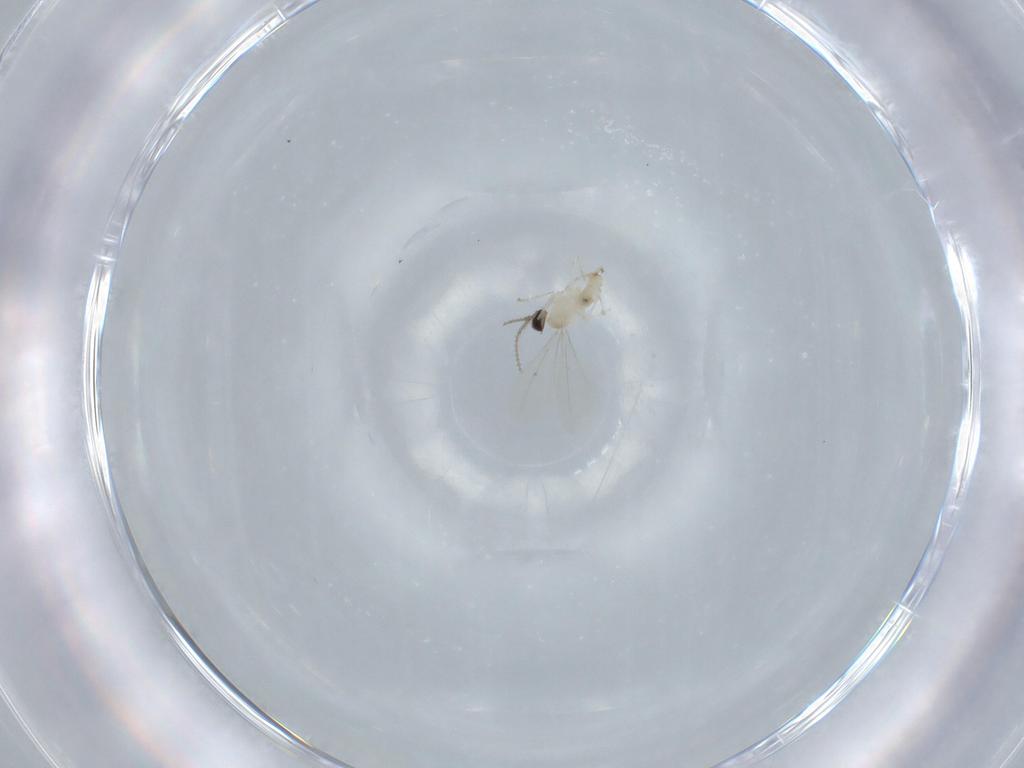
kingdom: Animalia
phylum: Arthropoda
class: Insecta
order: Diptera
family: Cecidomyiidae
